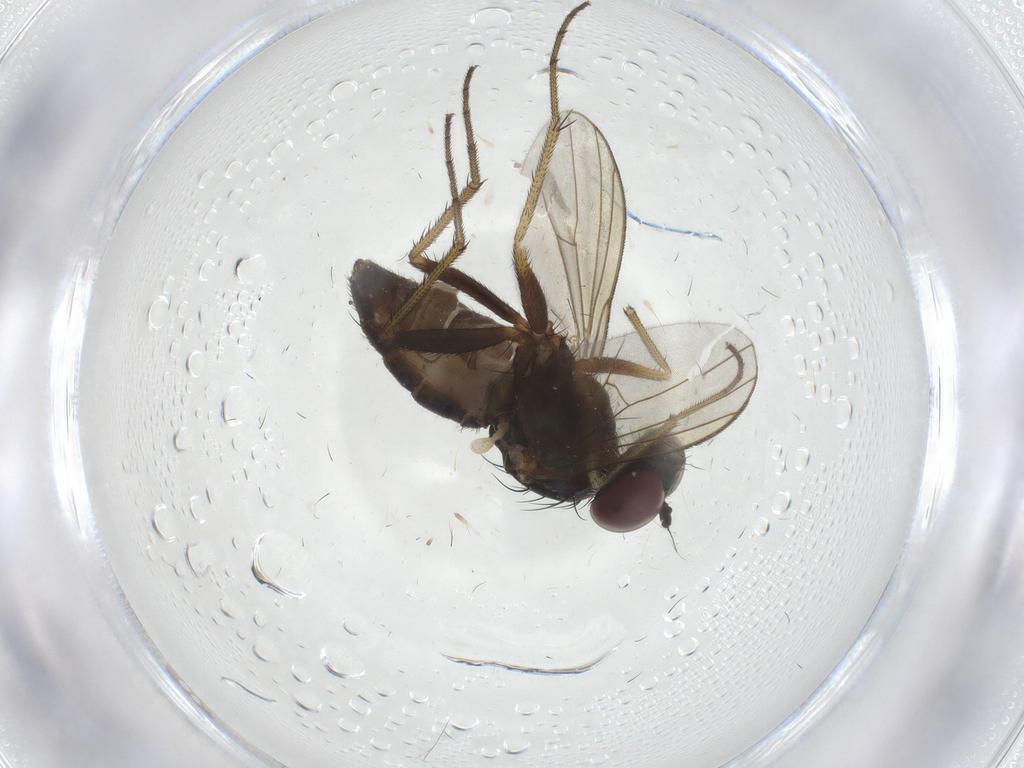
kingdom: Animalia
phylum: Arthropoda
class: Insecta
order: Diptera
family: Dolichopodidae
